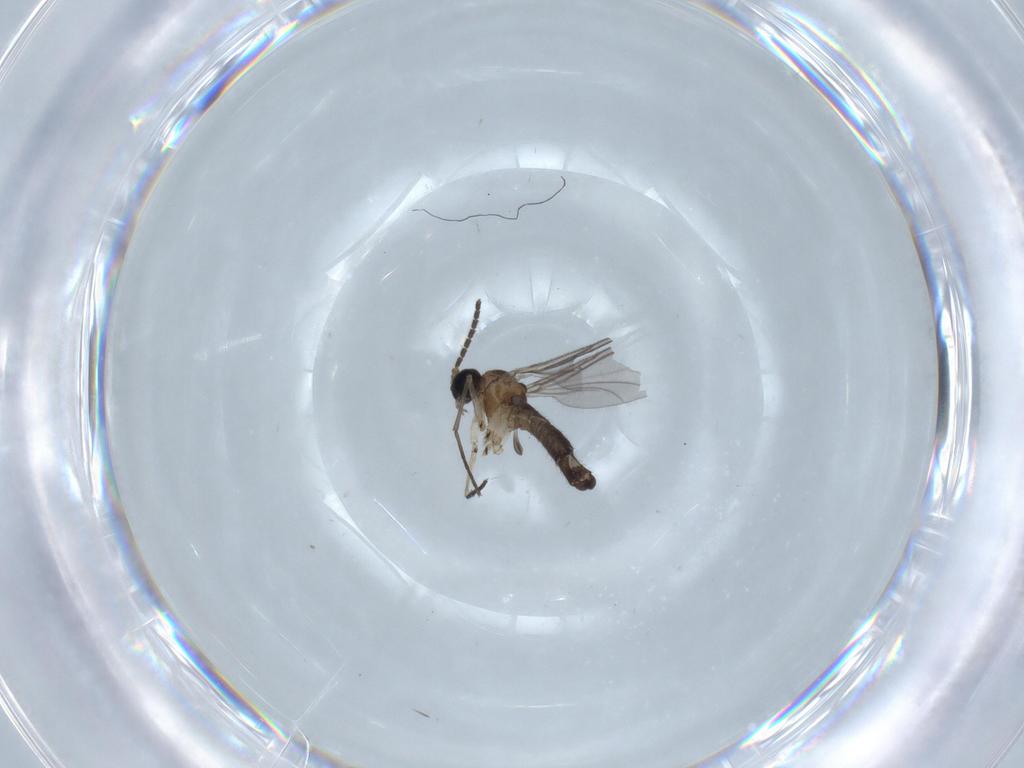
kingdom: Animalia
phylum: Arthropoda
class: Insecta
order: Diptera
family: Sciaridae
